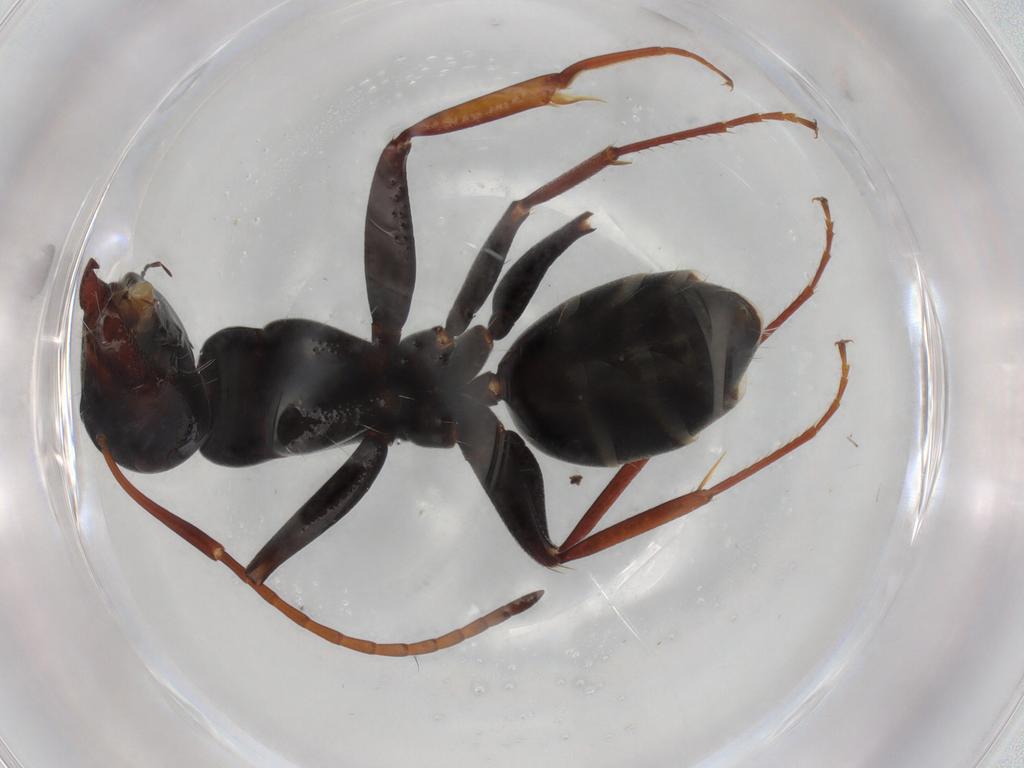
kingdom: Animalia
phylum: Arthropoda
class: Insecta
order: Hymenoptera
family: Formicidae
